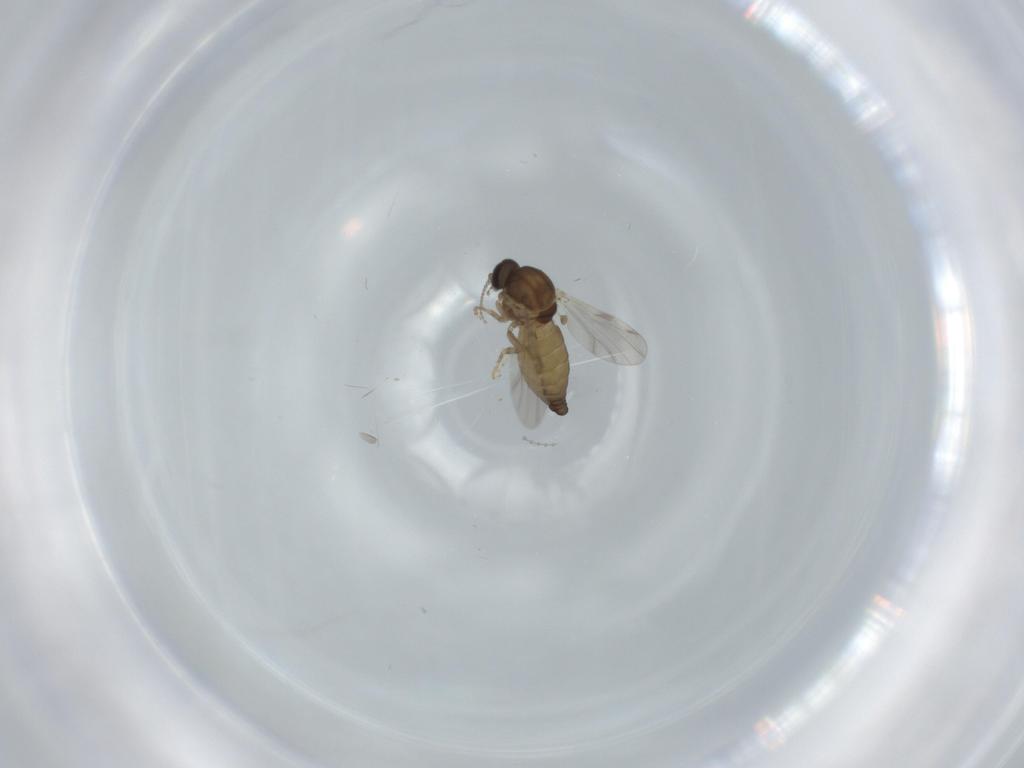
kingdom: Animalia
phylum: Arthropoda
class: Insecta
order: Diptera
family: Ceratopogonidae
